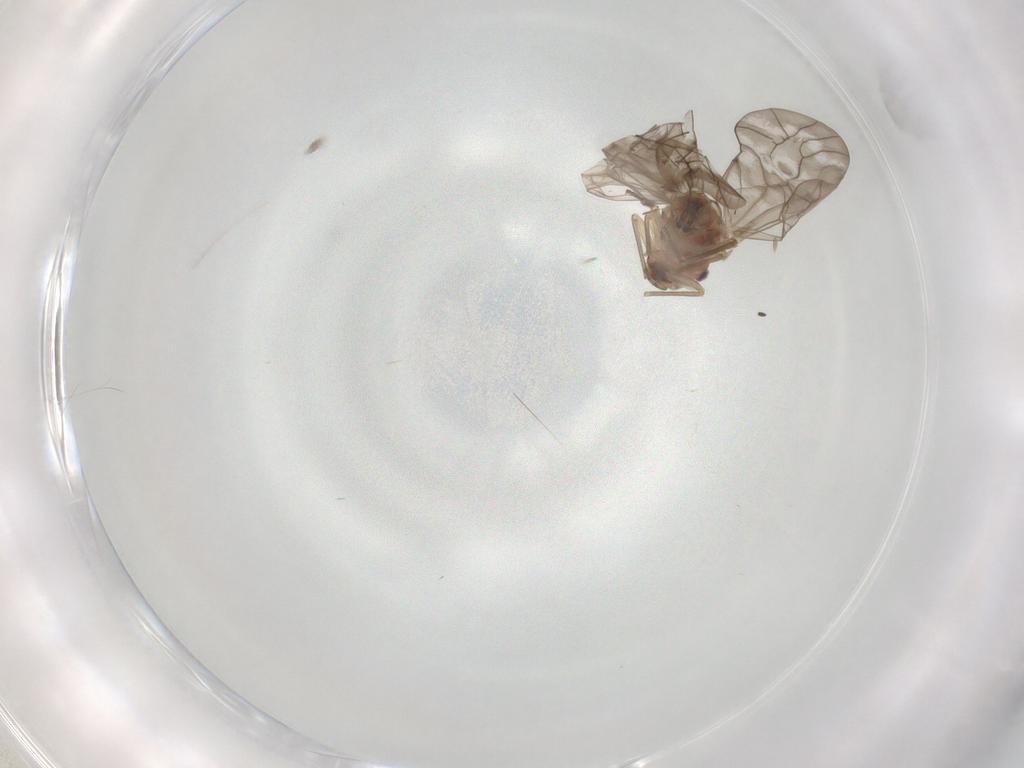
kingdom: Animalia
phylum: Arthropoda
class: Insecta
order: Psocodea
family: Peripsocidae
